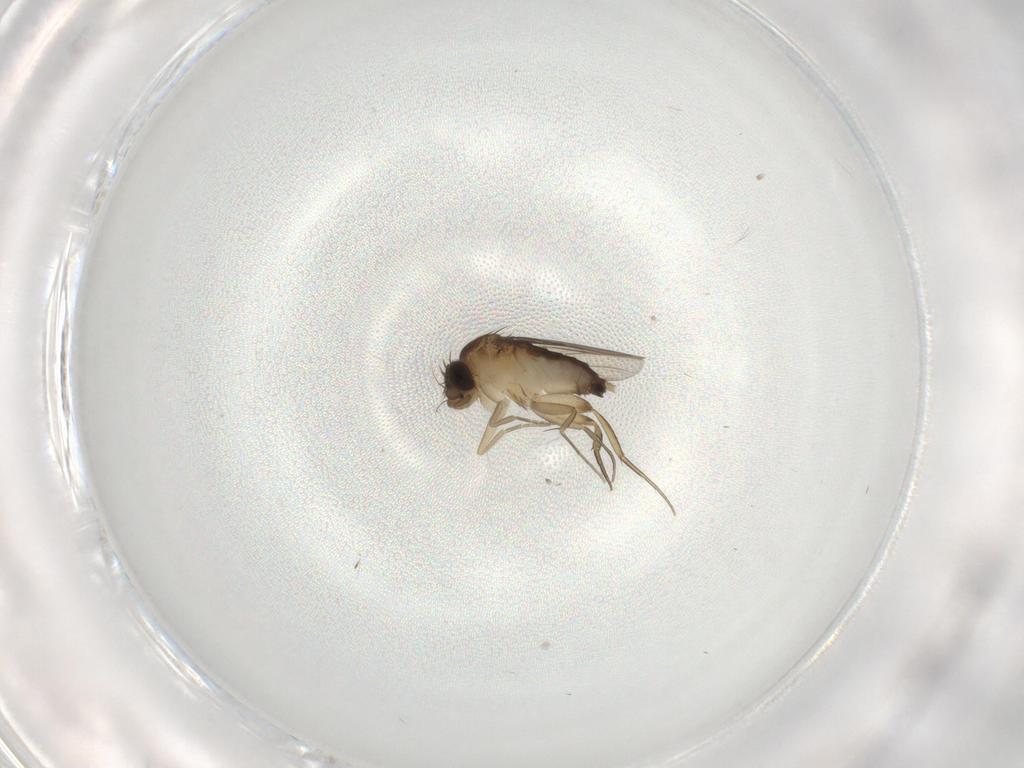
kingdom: Animalia
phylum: Arthropoda
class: Insecta
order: Diptera
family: Phoridae
